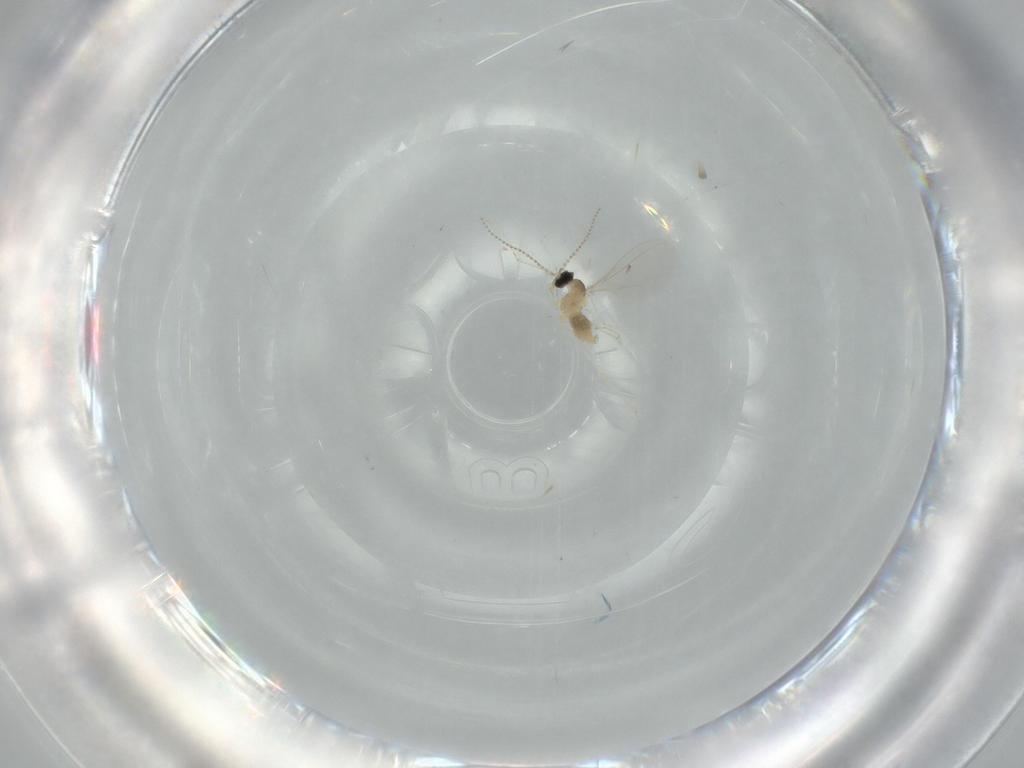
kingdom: Animalia
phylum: Arthropoda
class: Insecta
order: Diptera
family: Cecidomyiidae
